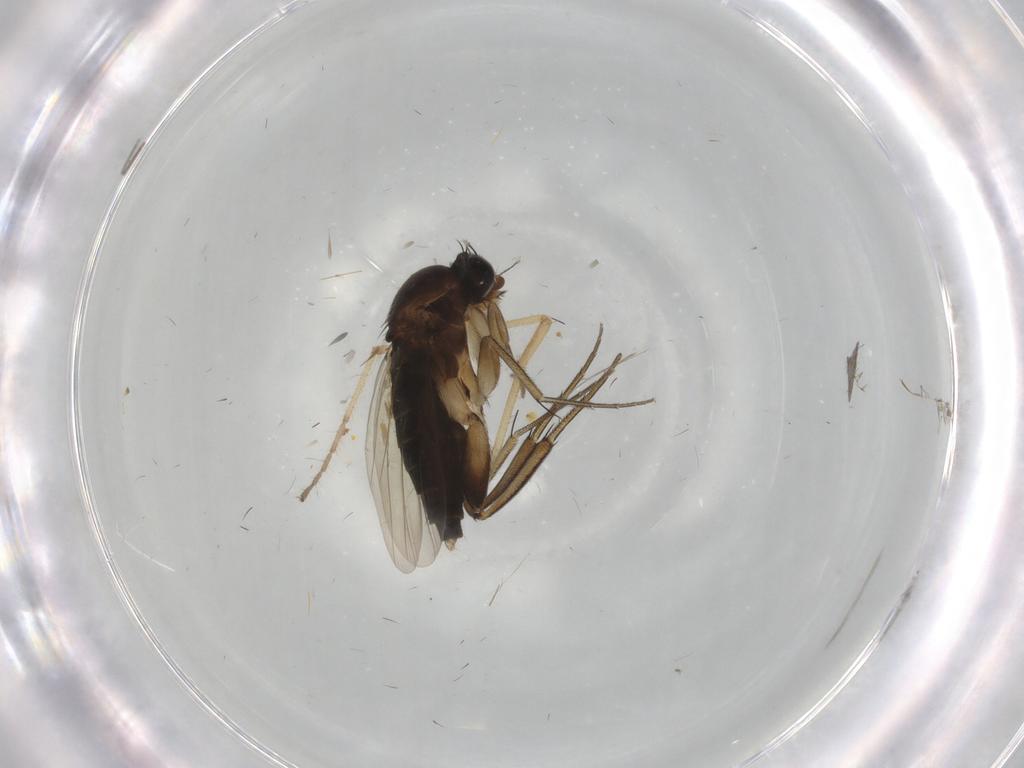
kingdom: Animalia
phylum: Arthropoda
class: Insecta
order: Diptera
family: Phoridae
